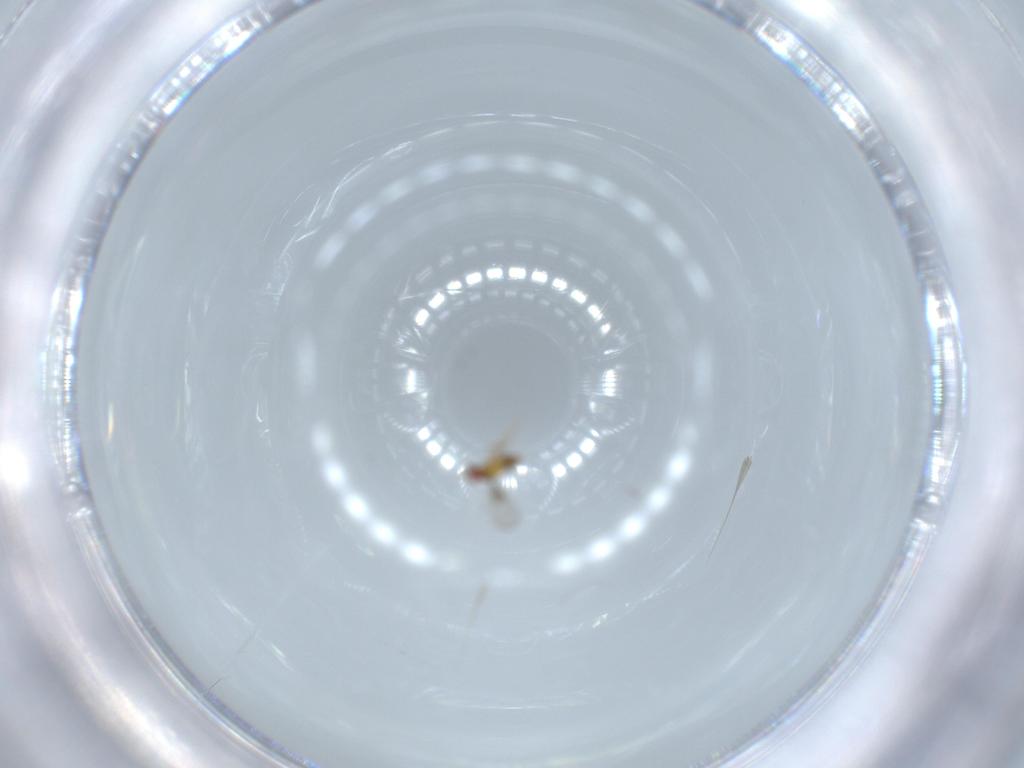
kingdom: Animalia
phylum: Arthropoda
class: Insecta
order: Hymenoptera
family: Trichogrammatidae
